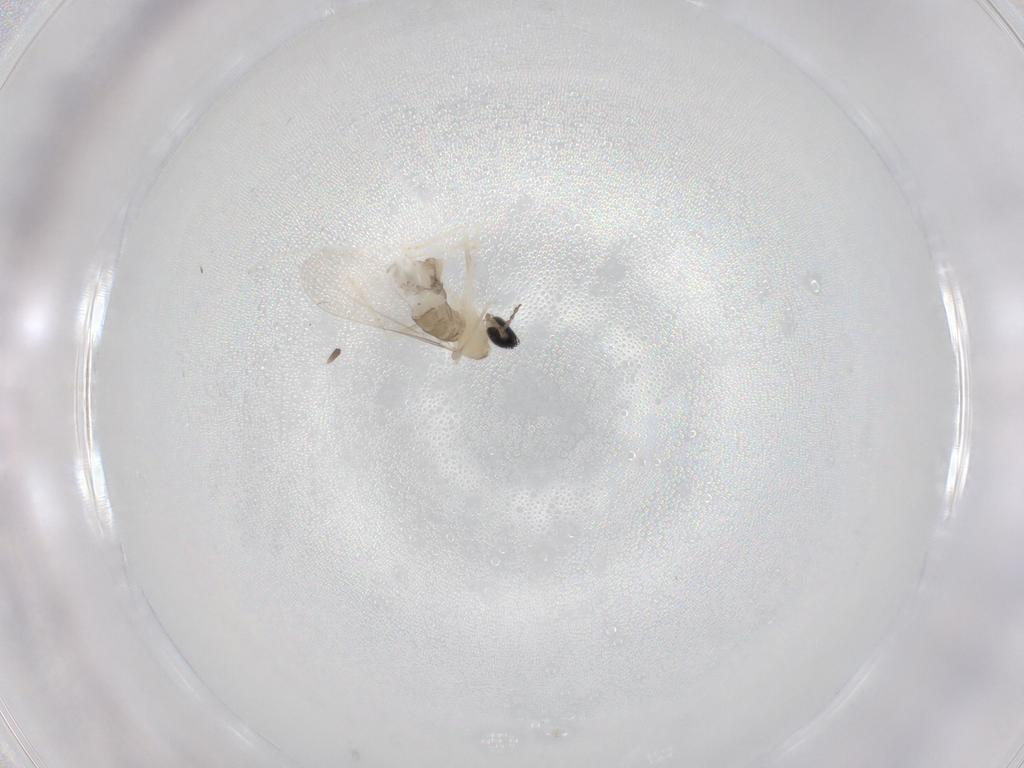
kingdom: Animalia
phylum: Arthropoda
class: Insecta
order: Diptera
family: Cecidomyiidae
